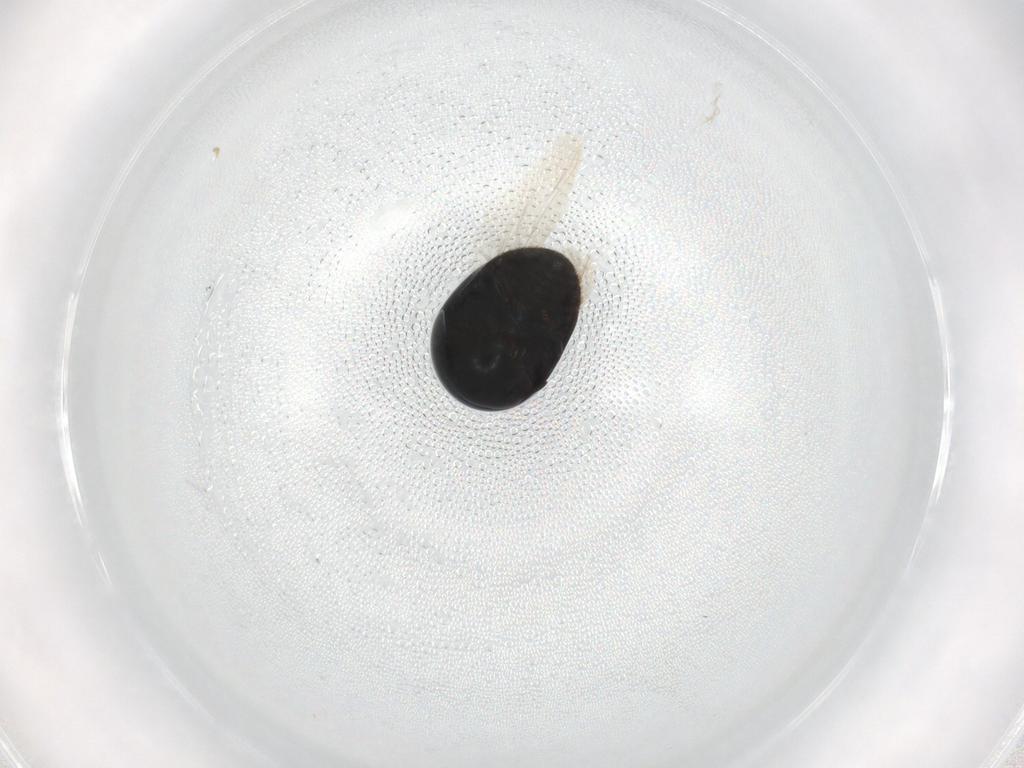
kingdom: Animalia
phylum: Arthropoda
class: Insecta
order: Coleoptera
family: Cybocephalidae
